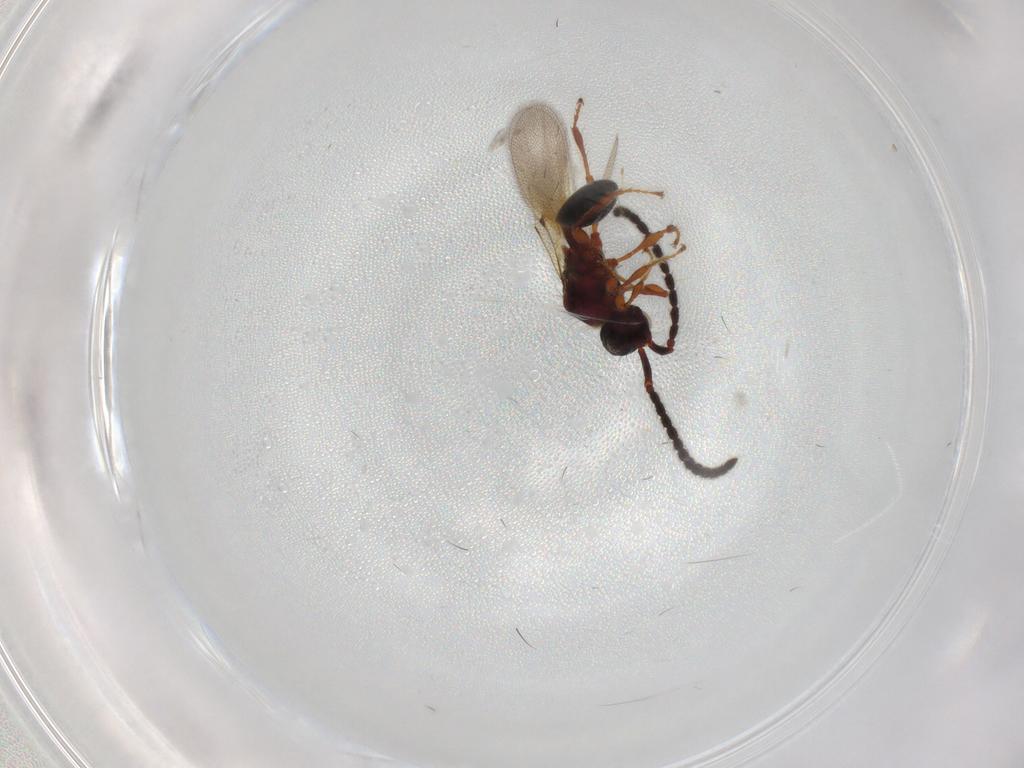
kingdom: Animalia
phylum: Arthropoda
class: Insecta
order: Hymenoptera
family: Diapriidae
